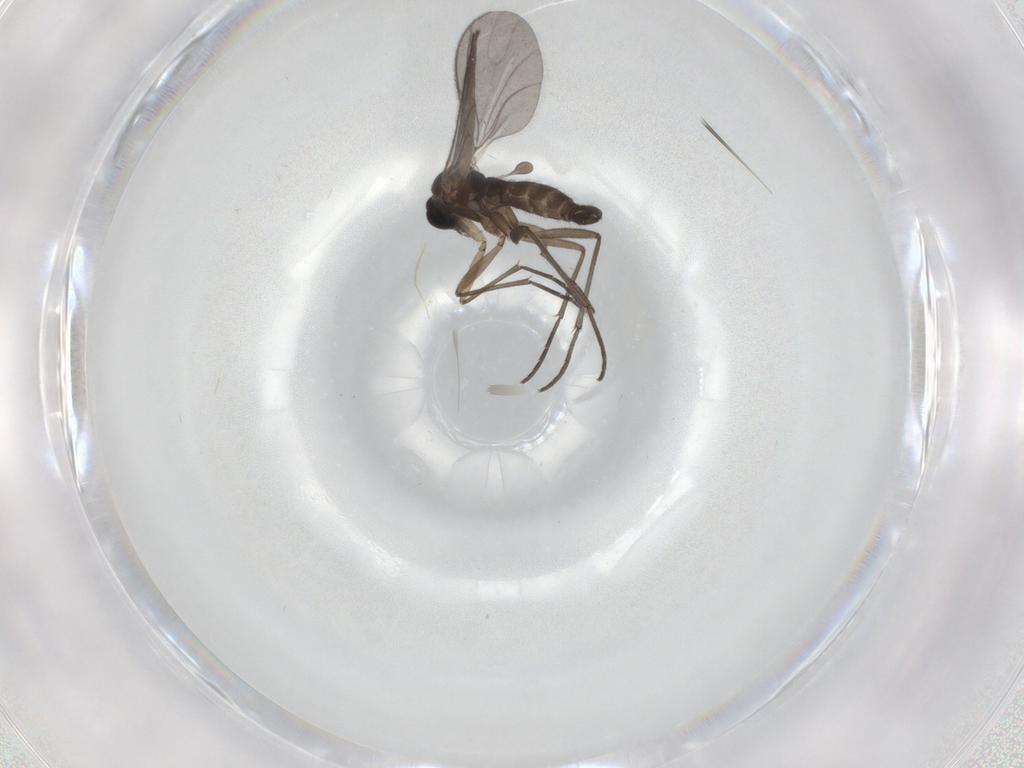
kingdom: Animalia
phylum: Arthropoda
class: Insecta
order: Diptera
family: Sciaridae
